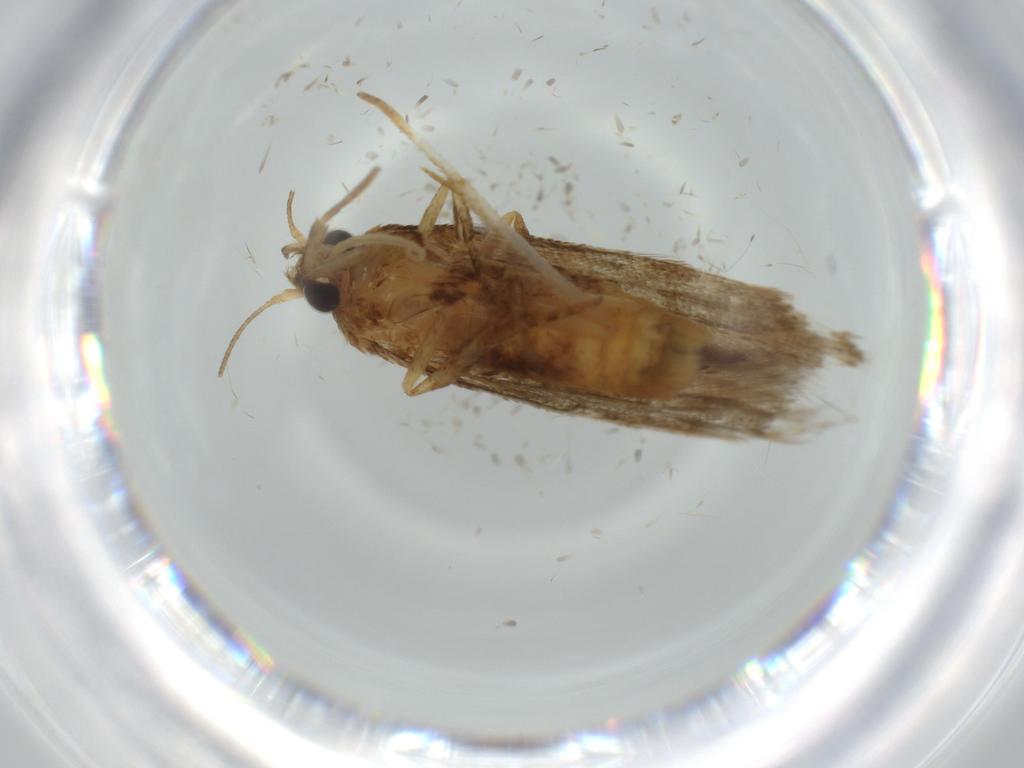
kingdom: Animalia
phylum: Arthropoda
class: Insecta
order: Lepidoptera
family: Coleophoridae
